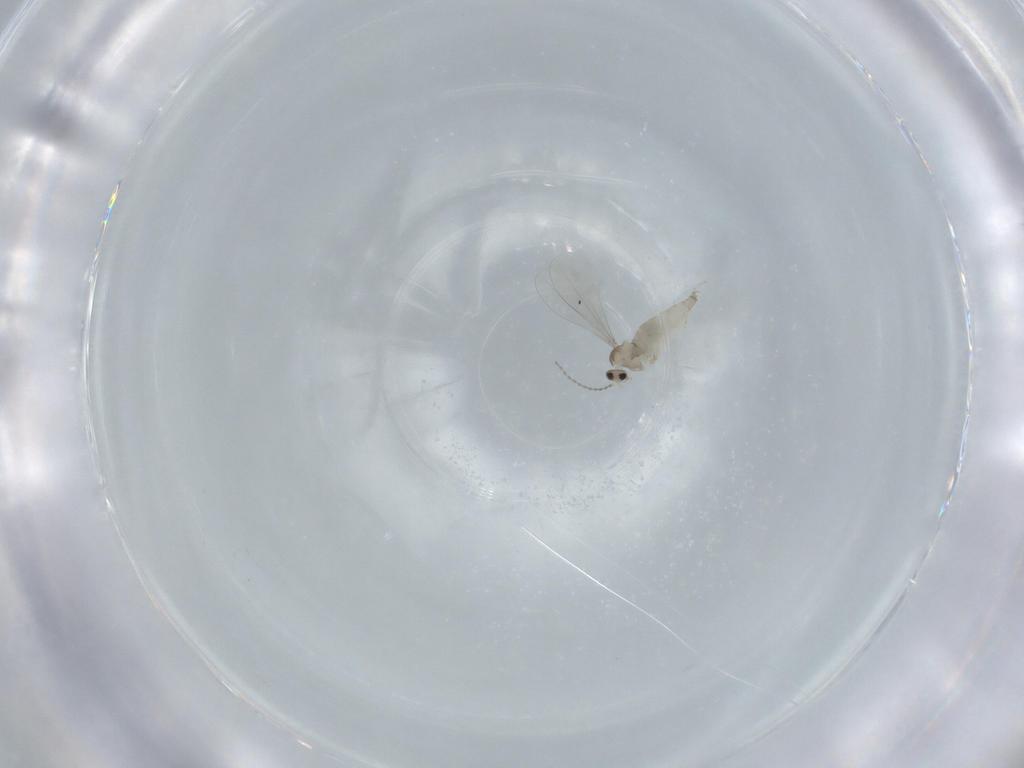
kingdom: Animalia
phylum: Arthropoda
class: Insecta
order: Diptera
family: Cecidomyiidae
